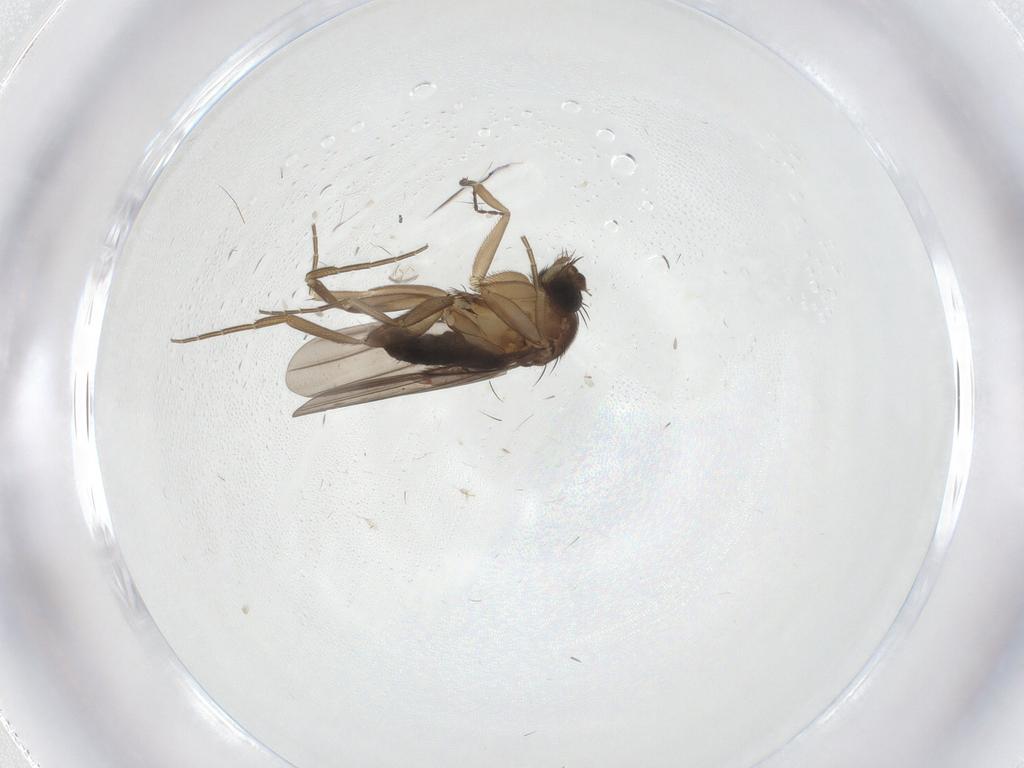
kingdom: Animalia
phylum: Arthropoda
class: Insecta
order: Diptera
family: Limoniidae
